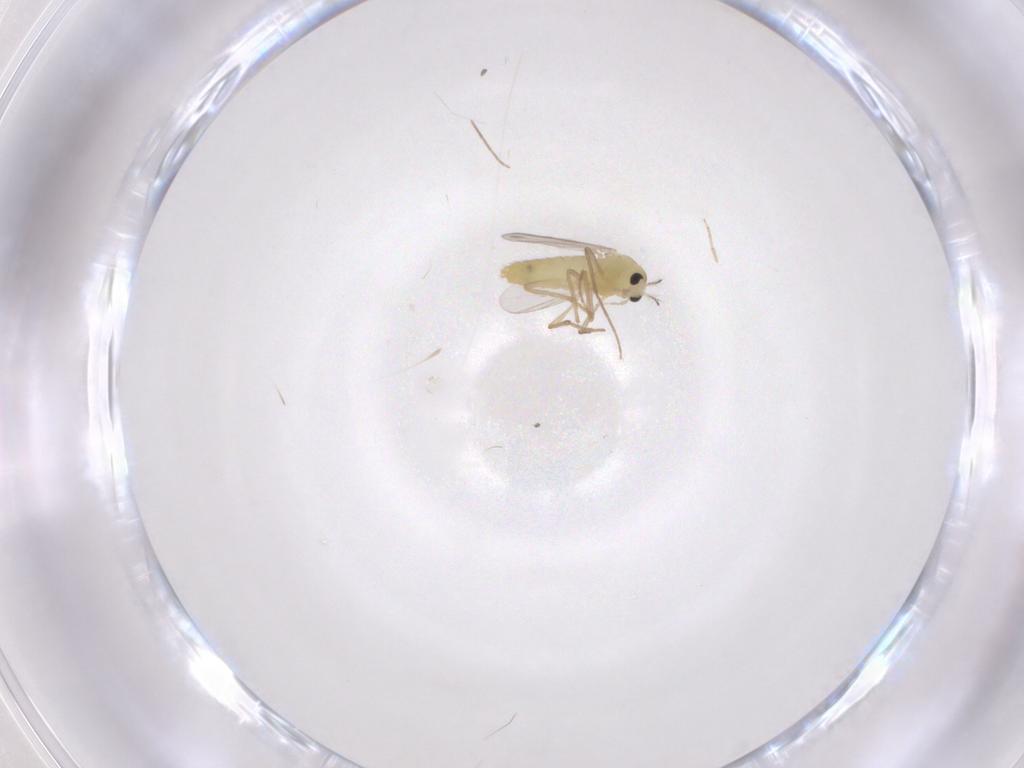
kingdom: Animalia
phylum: Arthropoda
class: Insecta
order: Diptera
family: Chironomidae
